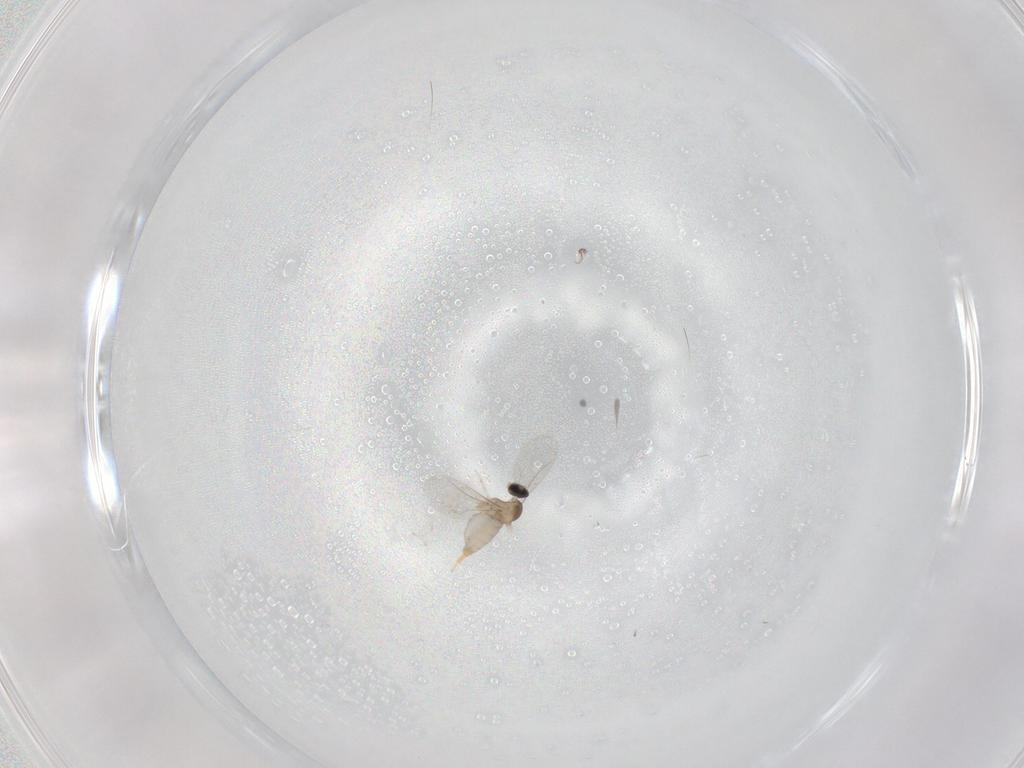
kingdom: Animalia
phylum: Arthropoda
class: Insecta
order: Diptera
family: Cecidomyiidae
